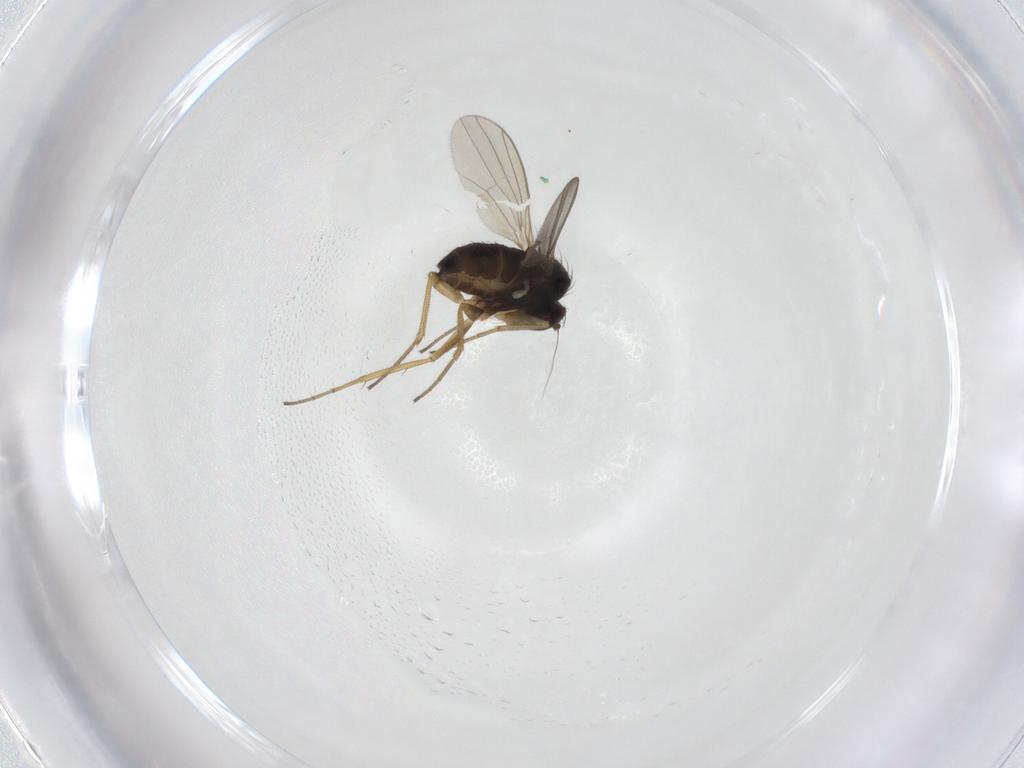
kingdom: Animalia
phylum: Arthropoda
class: Insecta
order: Diptera
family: Dolichopodidae
